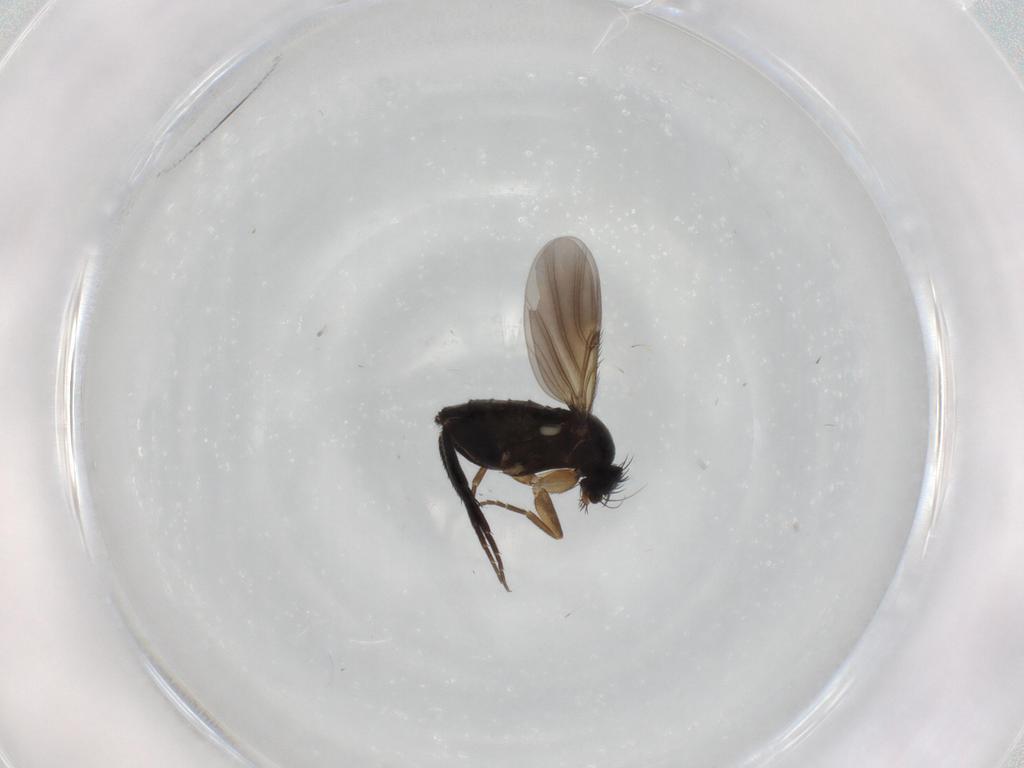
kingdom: Animalia
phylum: Arthropoda
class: Insecta
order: Diptera
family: Phoridae
